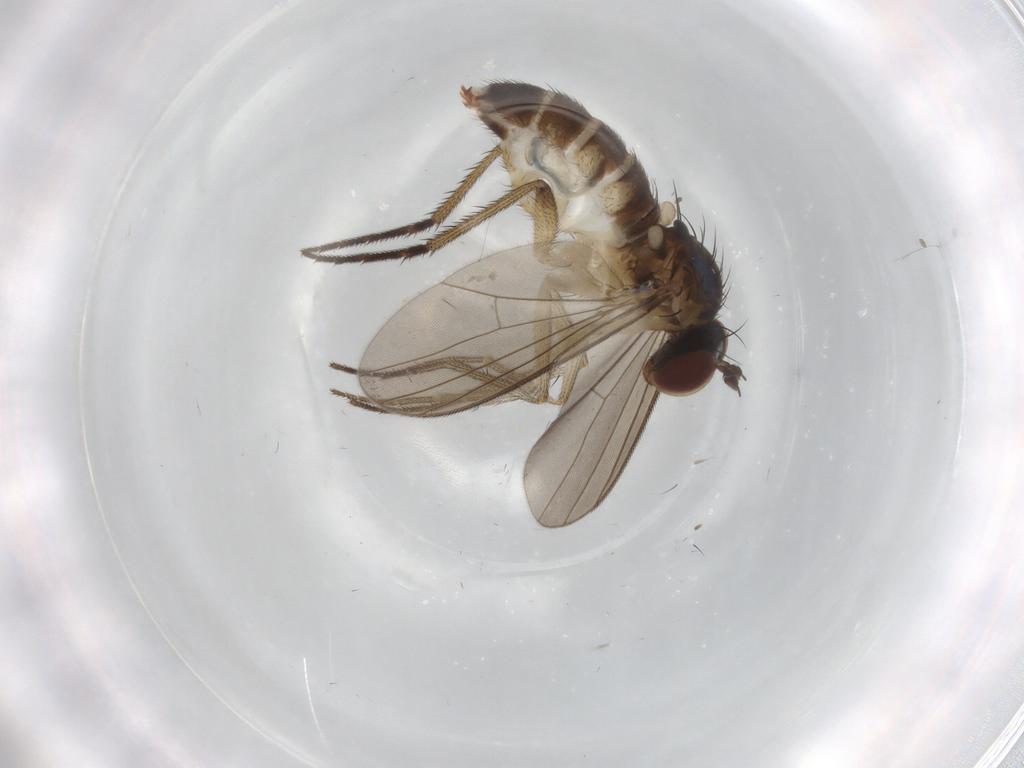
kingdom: Animalia
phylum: Arthropoda
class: Insecta
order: Diptera
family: Dolichopodidae
